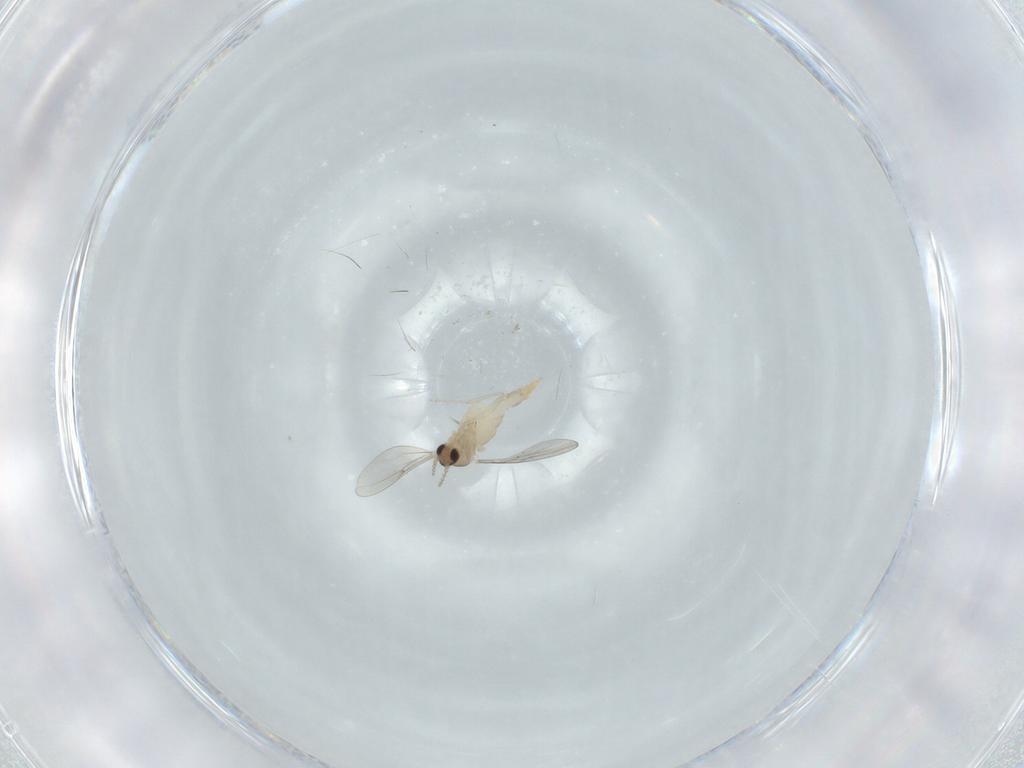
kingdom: Animalia
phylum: Arthropoda
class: Insecta
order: Diptera
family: Cecidomyiidae
